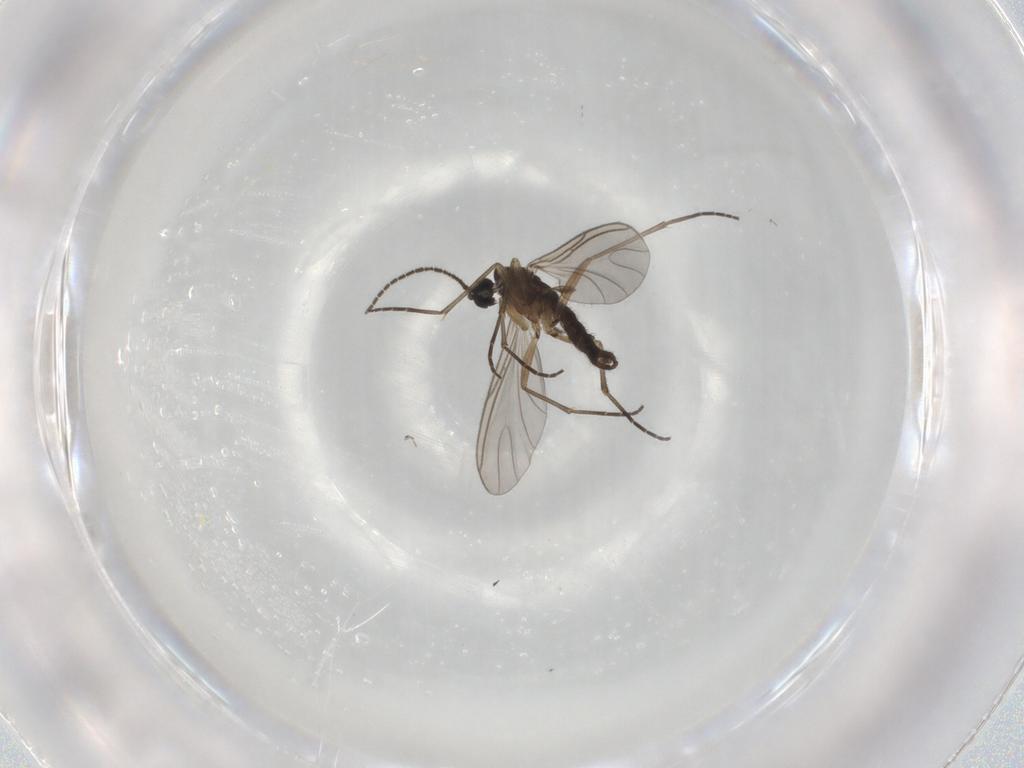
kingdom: Animalia
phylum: Arthropoda
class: Insecta
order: Diptera
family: Sciaridae
